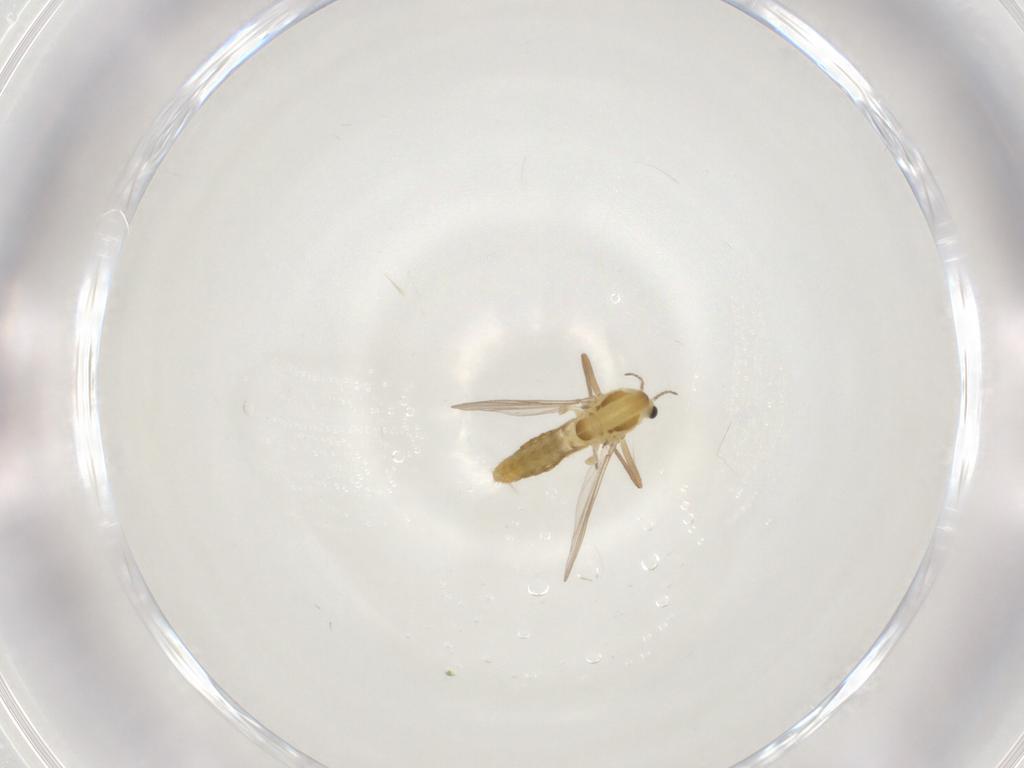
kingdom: Animalia
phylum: Arthropoda
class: Insecta
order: Diptera
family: Chironomidae
